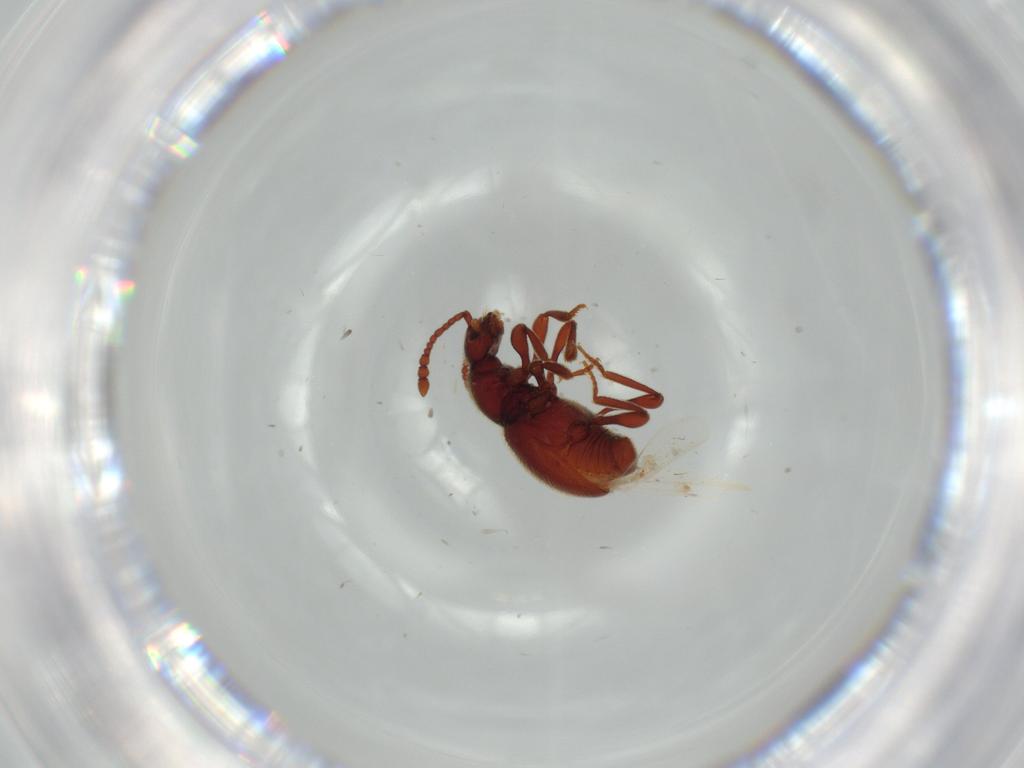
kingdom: Animalia
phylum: Arthropoda
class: Insecta
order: Coleoptera
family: Staphylinidae
